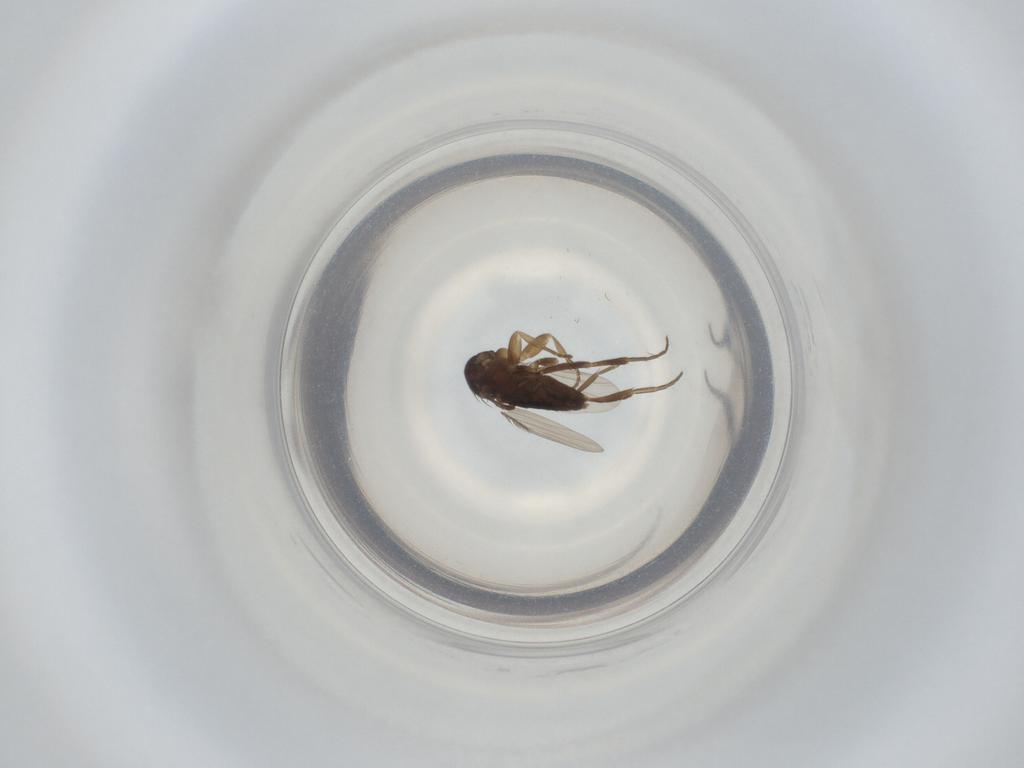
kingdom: Animalia
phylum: Arthropoda
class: Insecta
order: Diptera
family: Phoridae
